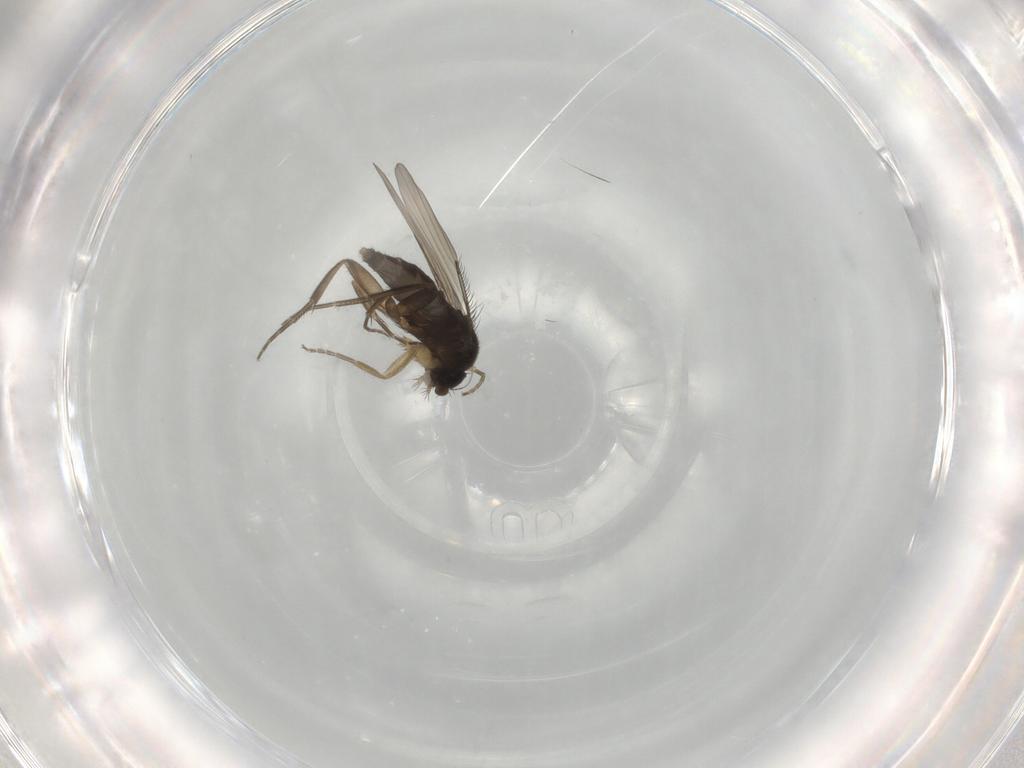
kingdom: Animalia
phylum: Arthropoda
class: Insecta
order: Diptera
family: Phoridae
